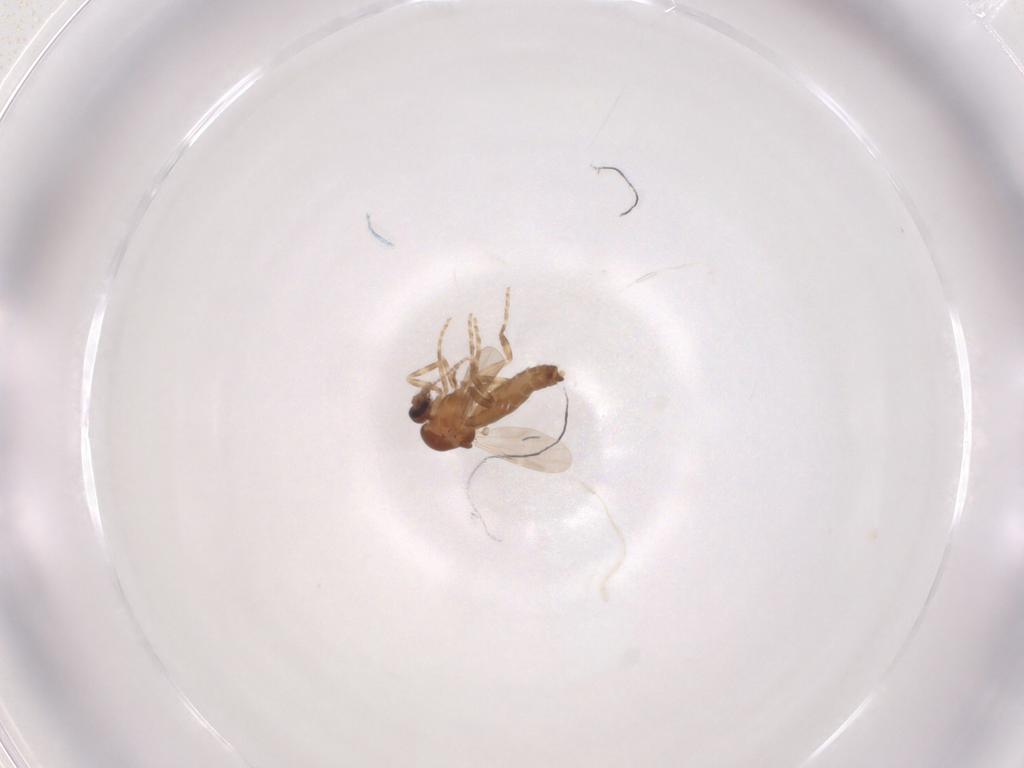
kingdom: Animalia
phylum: Arthropoda
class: Insecta
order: Diptera
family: Ceratopogonidae
